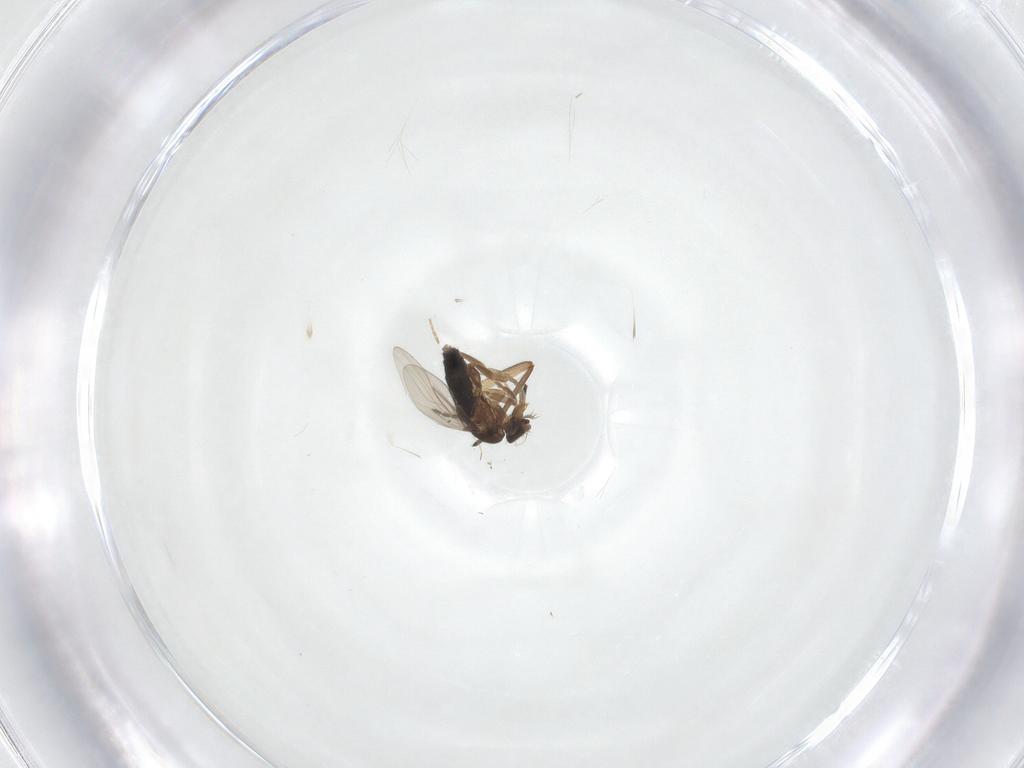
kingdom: Animalia
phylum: Arthropoda
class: Insecta
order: Diptera
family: Phoridae
